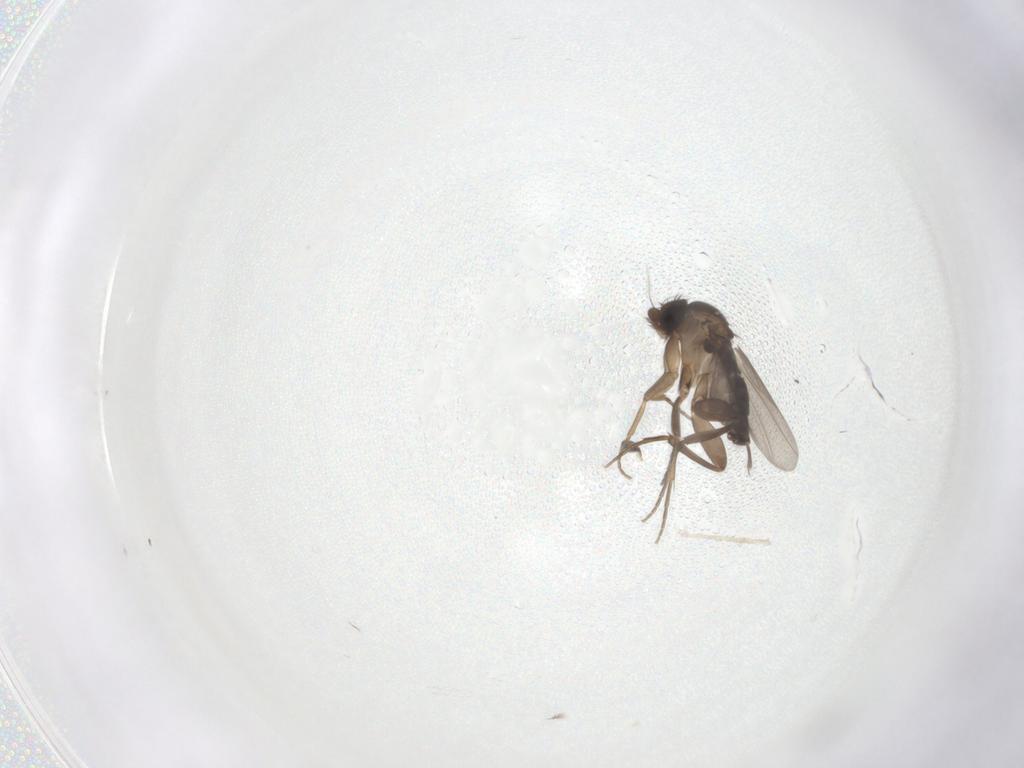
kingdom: Animalia
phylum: Arthropoda
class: Insecta
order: Diptera
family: Phoridae
